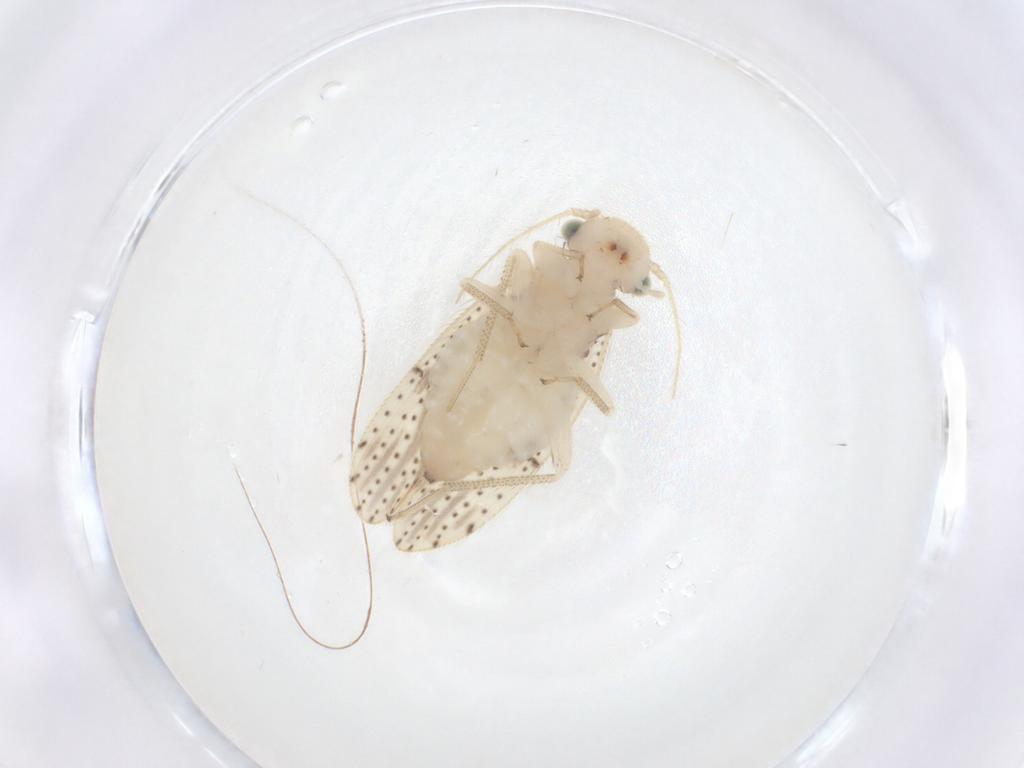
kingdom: Animalia
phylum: Arthropoda
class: Insecta
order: Psocodea
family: Myopsocidae
